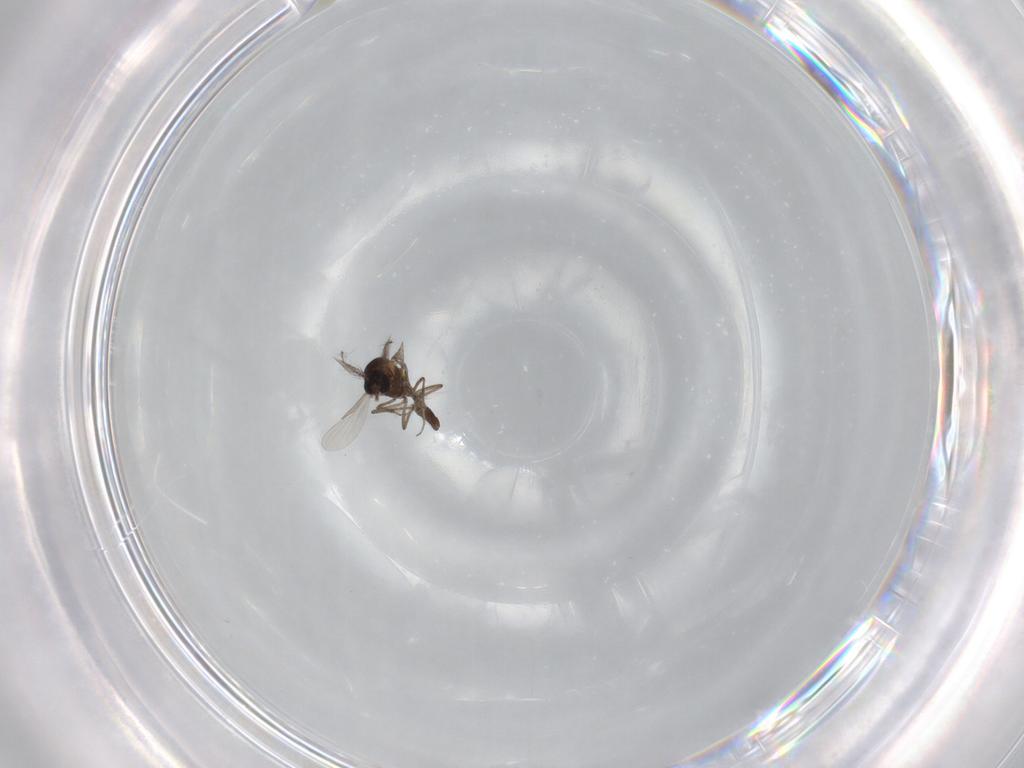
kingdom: Animalia
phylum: Arthropoda
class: Insecta
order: Diptera
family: Ceratopogonidae
